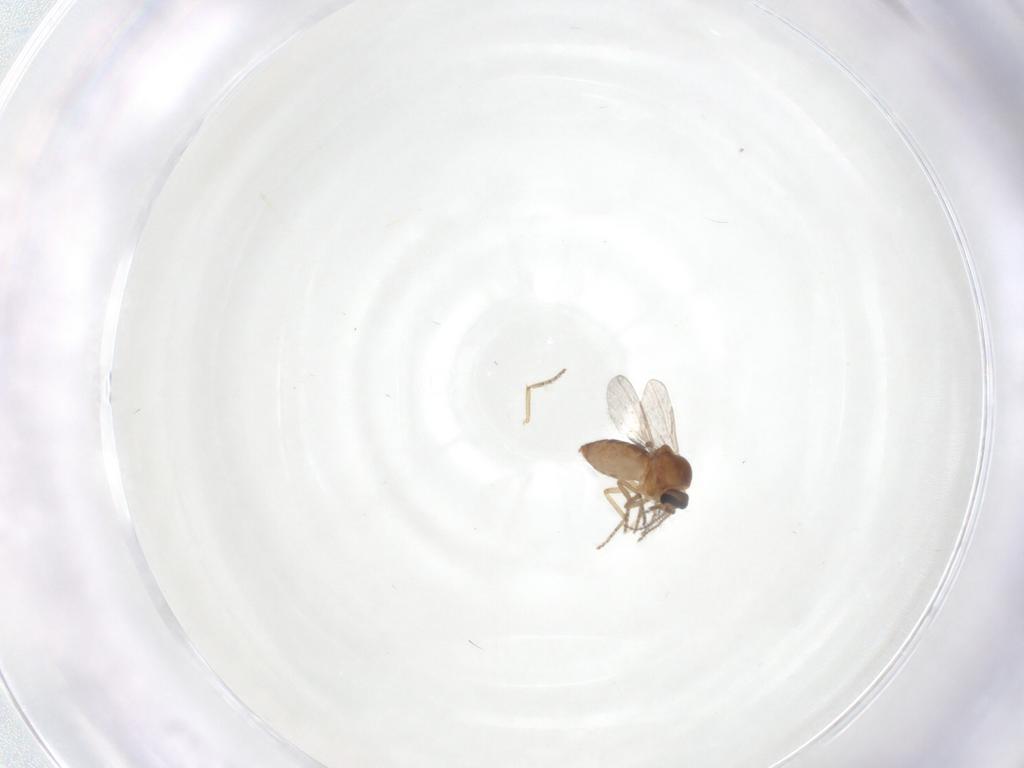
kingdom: Animalia
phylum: Arthropoda
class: Insecta
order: Diptera
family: Ceratopogonidae
